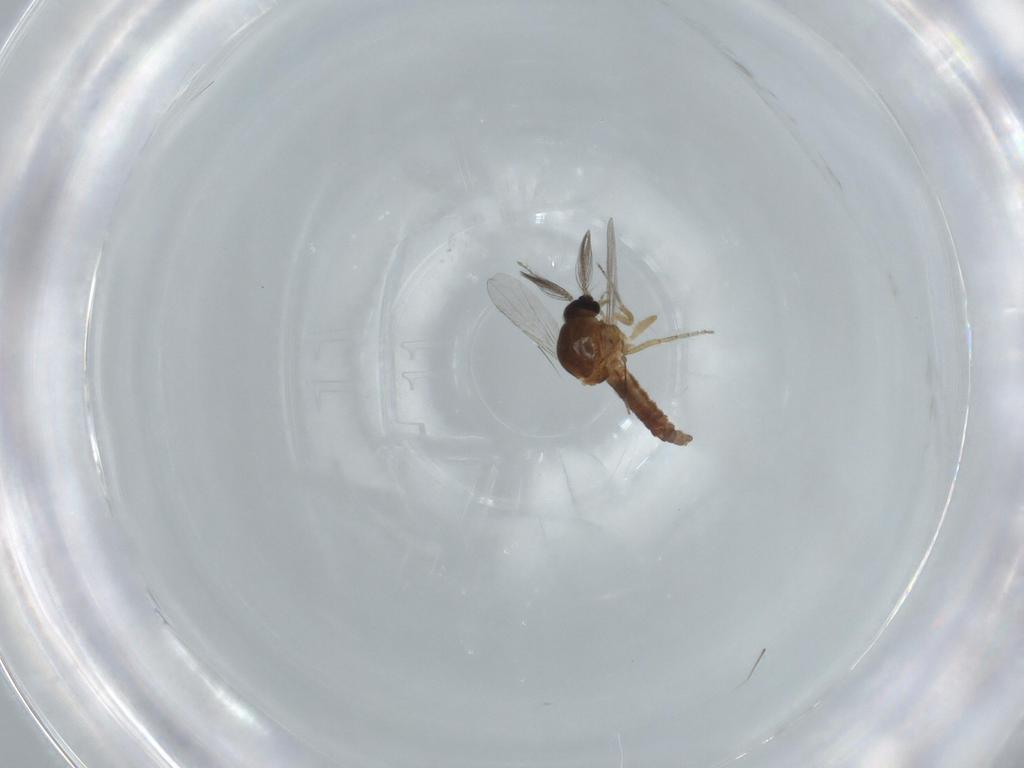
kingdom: Animalia
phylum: Arthropoda
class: Insecta
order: Diptera
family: Ceratopogonidae
